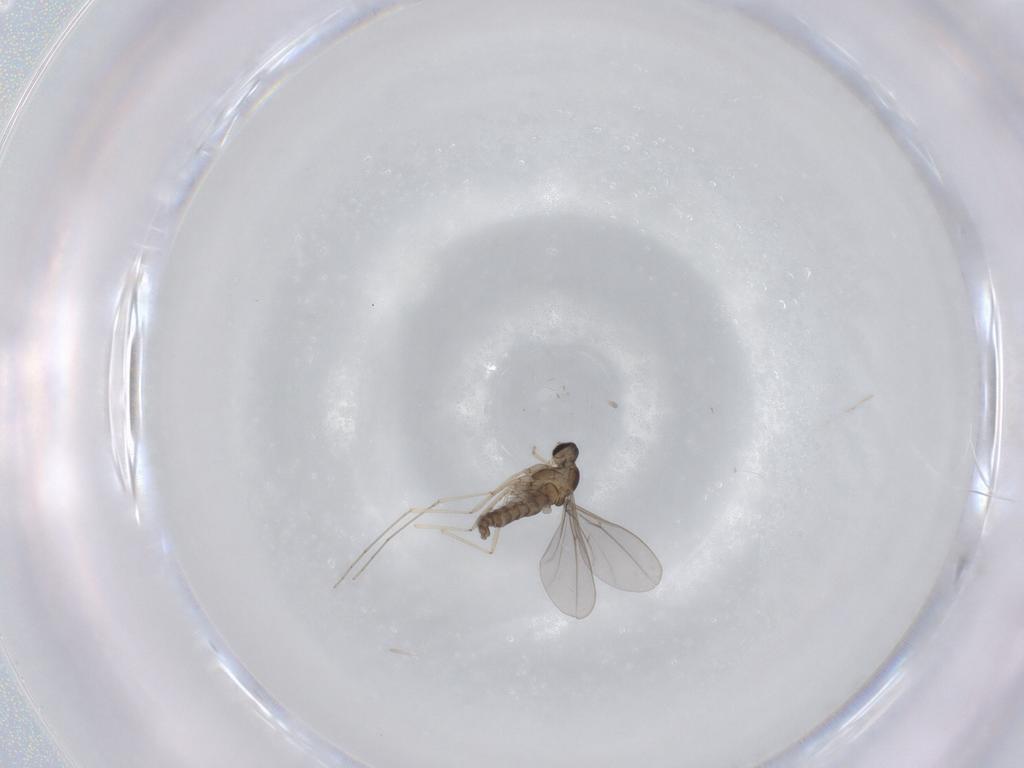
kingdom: Animalia
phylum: Arthropoda
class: Insecta
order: Diptera
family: Cecidomyiidae
